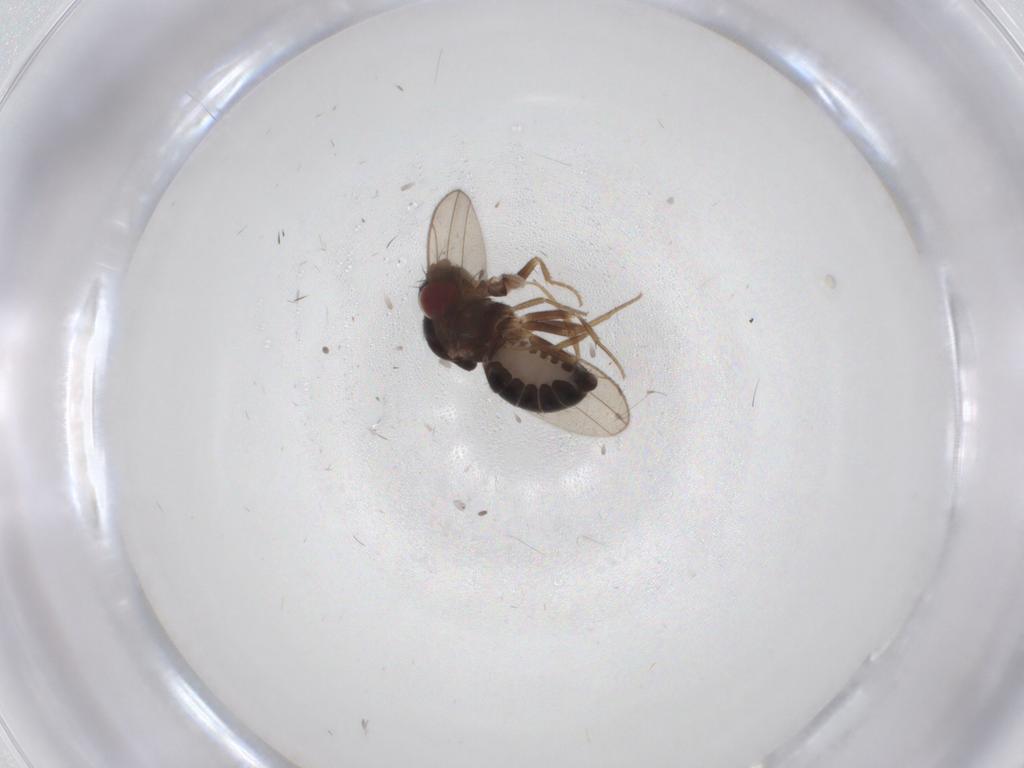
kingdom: Animalia
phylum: Arthropoda
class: Insecta
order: Diptera
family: Drosophilidae
